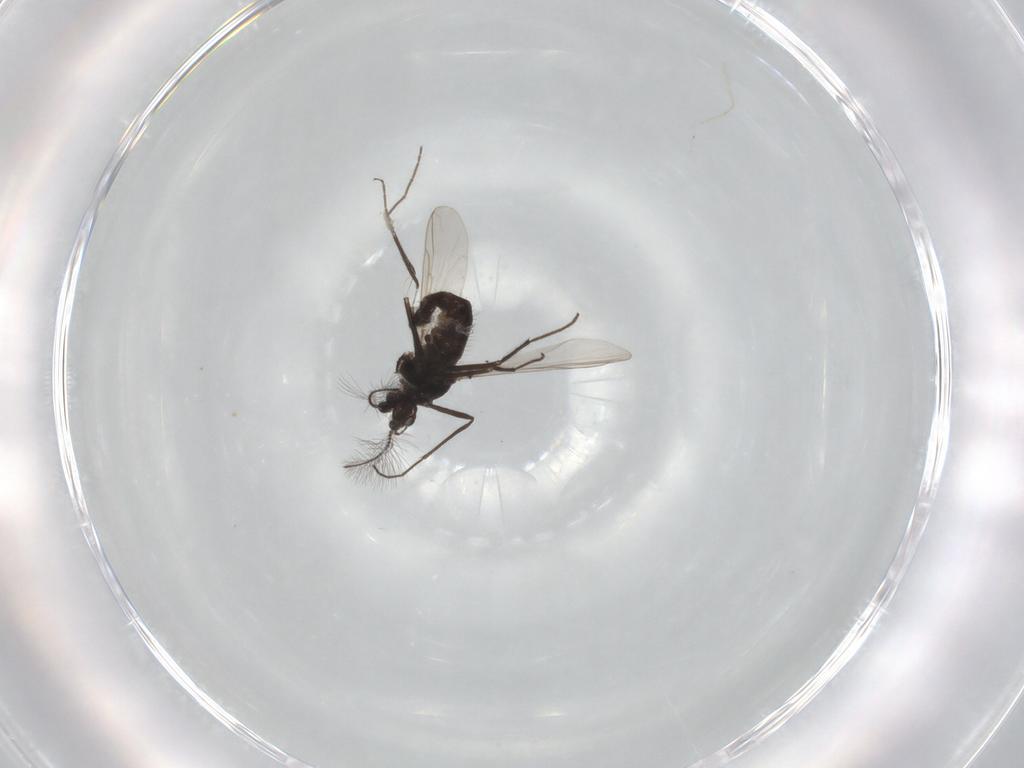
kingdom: Animalia
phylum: Arthropoda
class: Insecta
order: Diptera
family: Chironomidae
